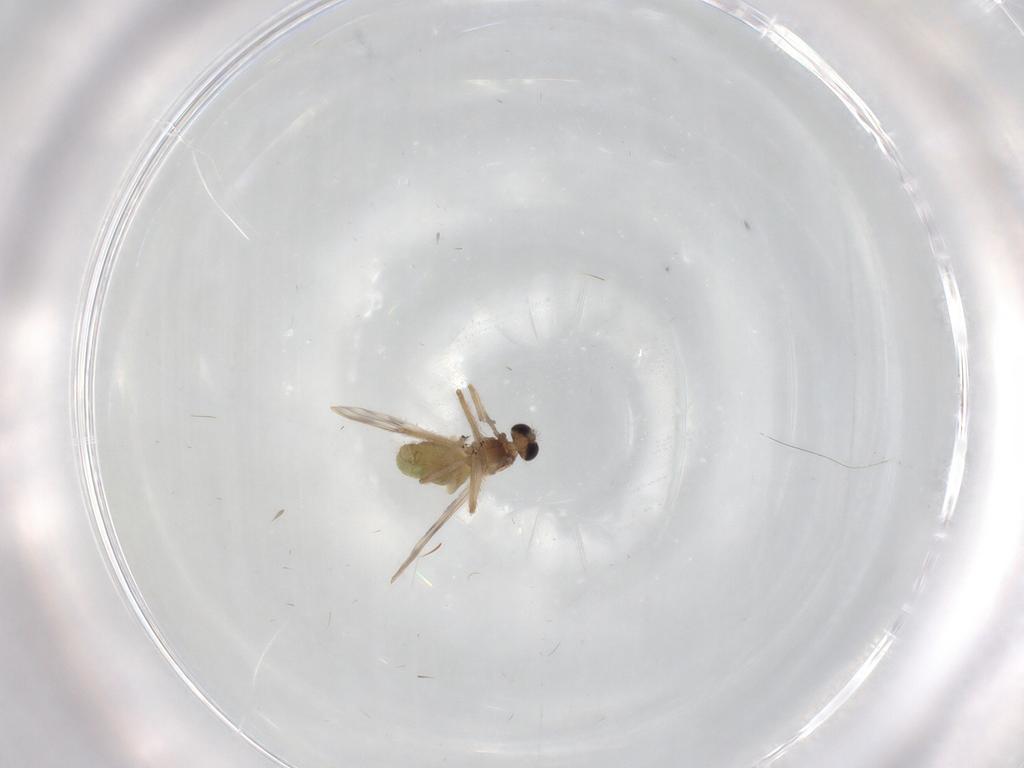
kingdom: Animalia
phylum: Arthropoda
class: Insecta
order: Diptera
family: Chironomidae
